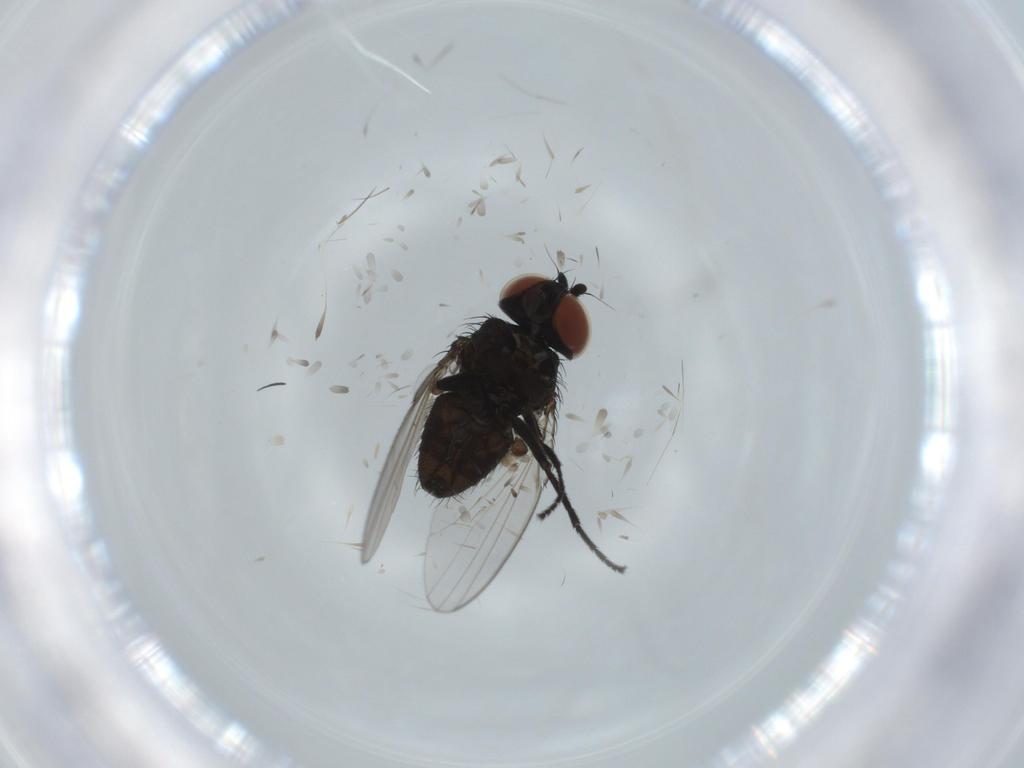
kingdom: Animalia
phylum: Arthropoda
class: Insecta
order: Diptera
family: Milichiidae
